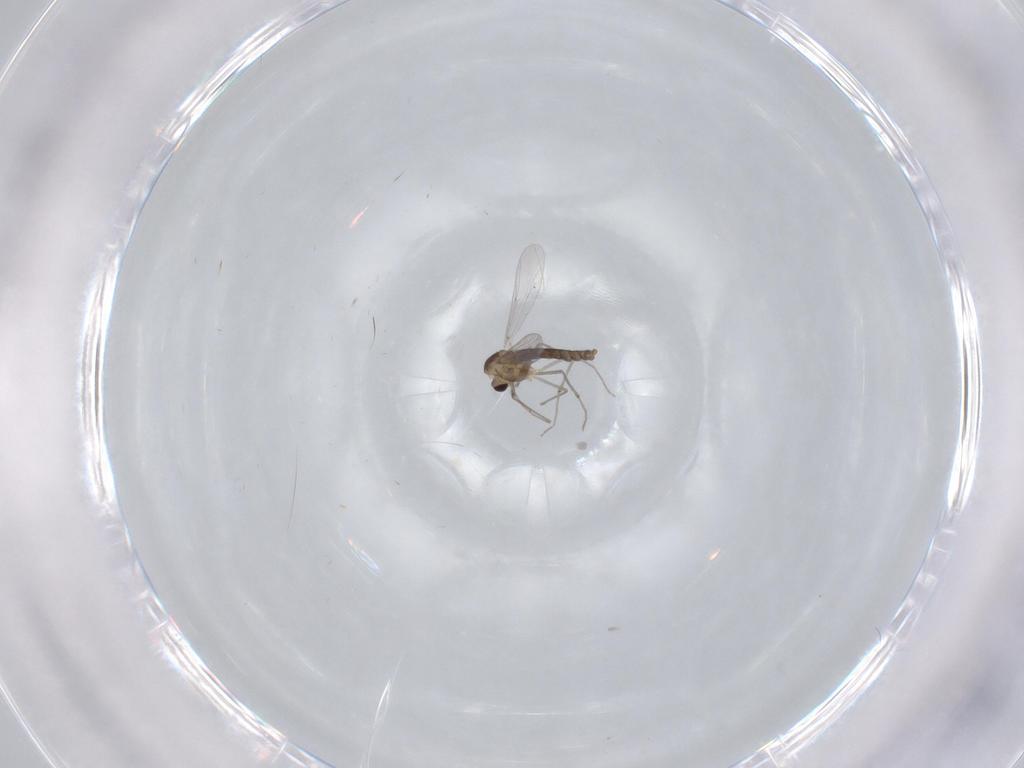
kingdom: Animalia
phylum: Arthropoda
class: Insecta
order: Diptera
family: Chironomidae
